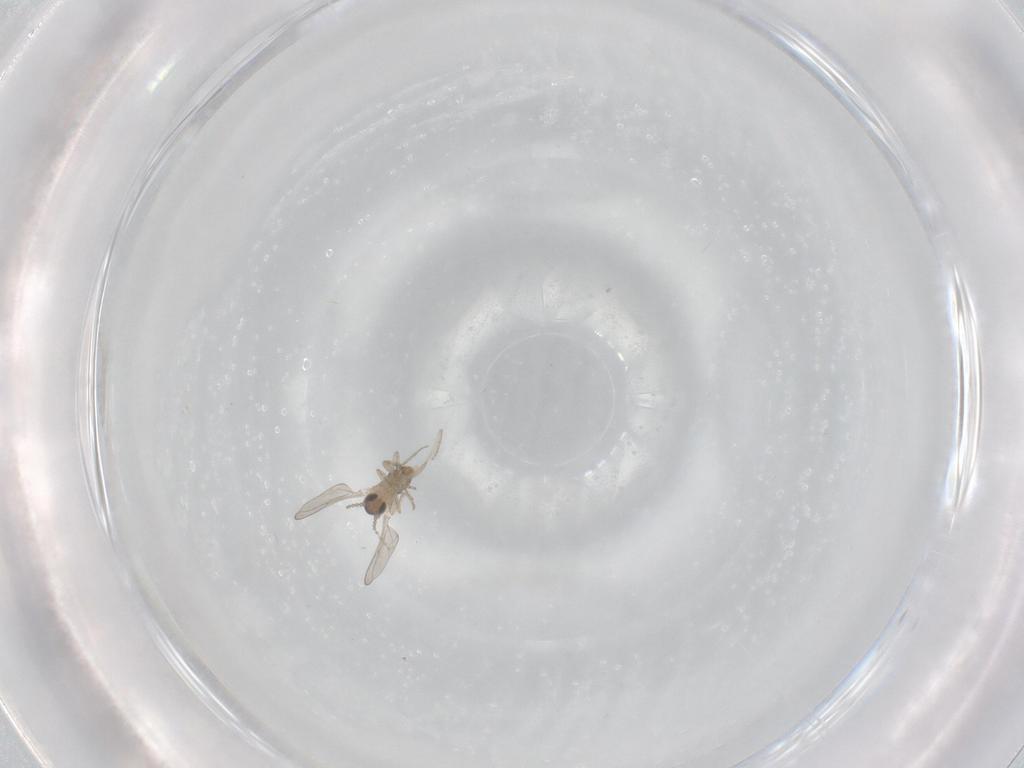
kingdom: Animalia
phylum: Arthropoda
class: Insecta
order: Diptera
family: Cecidomyiidae
